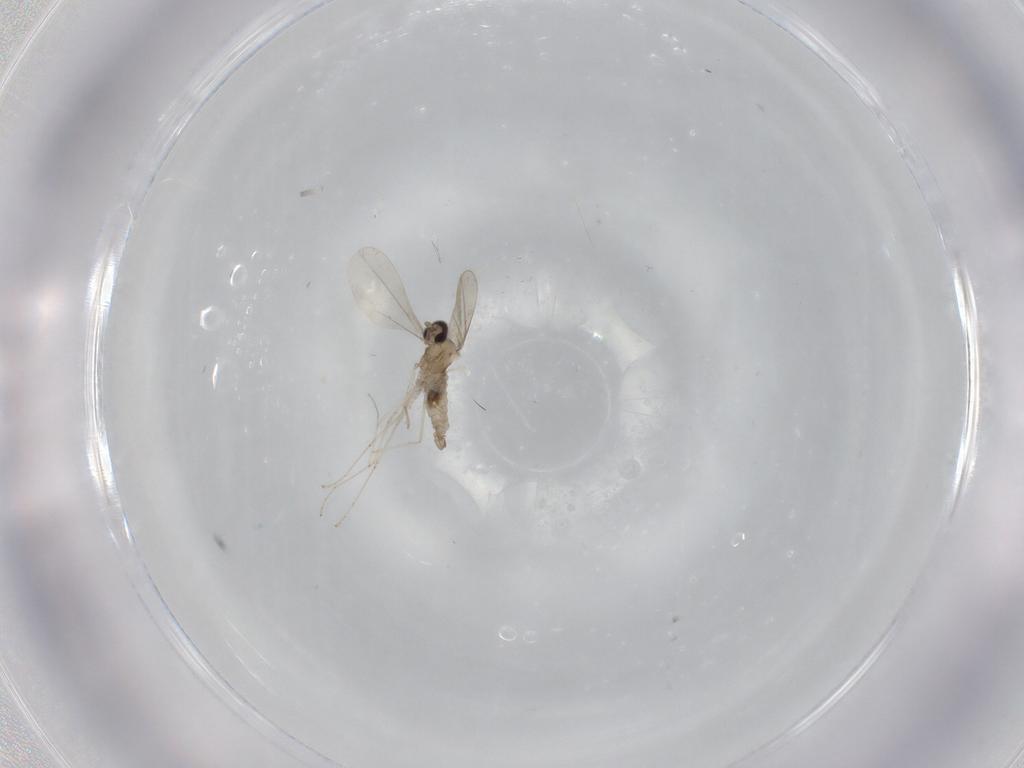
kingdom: Animalia
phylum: Arthropoda
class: Insecta
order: Diptera
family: Cecidomyiidae
